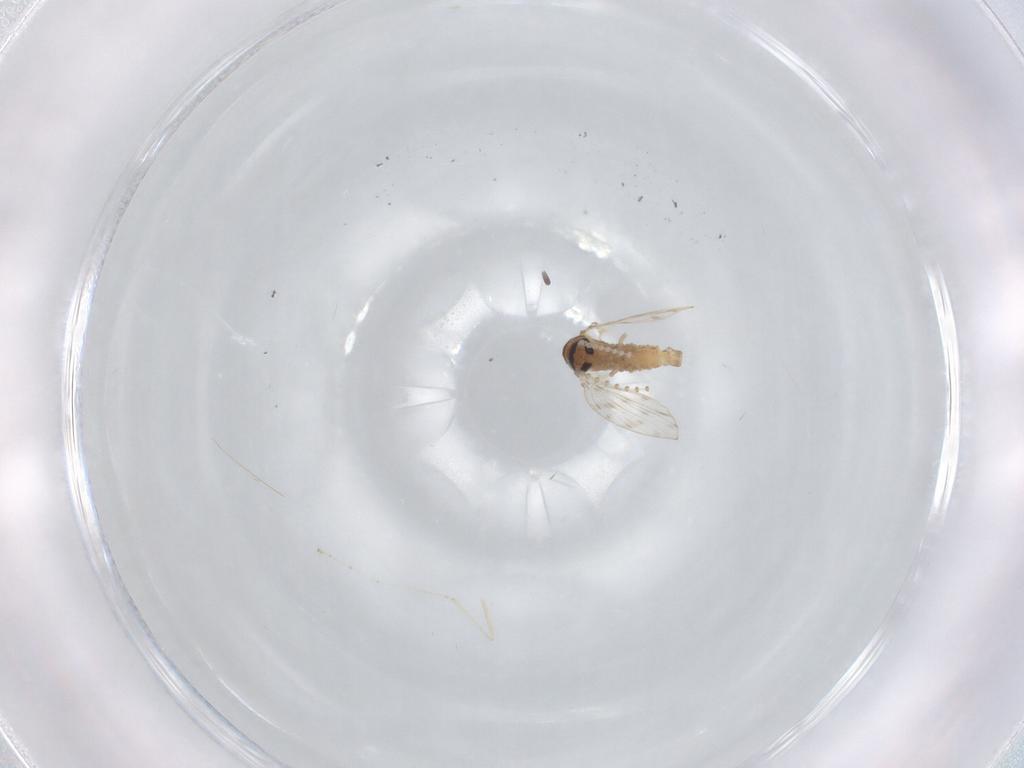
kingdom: Animalia
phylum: Arthropoda
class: Insecta
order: Diptera
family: Psychodidae
